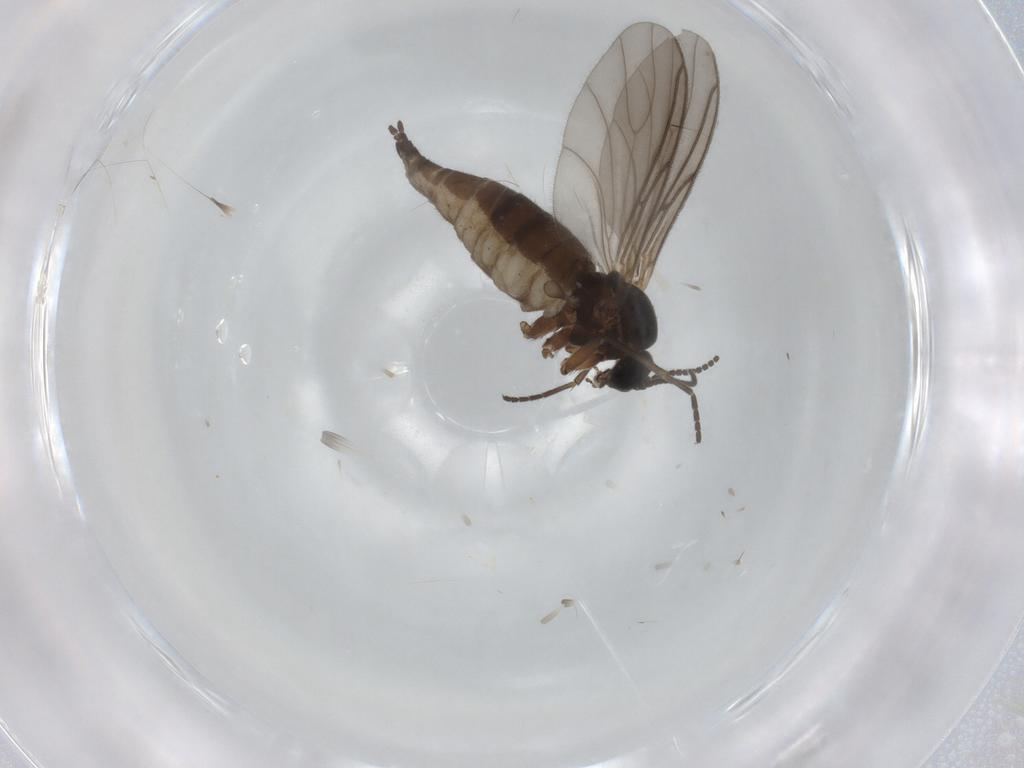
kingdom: Animalia
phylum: Arthropoda
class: Insecta
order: Diptera
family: Sciaridae
